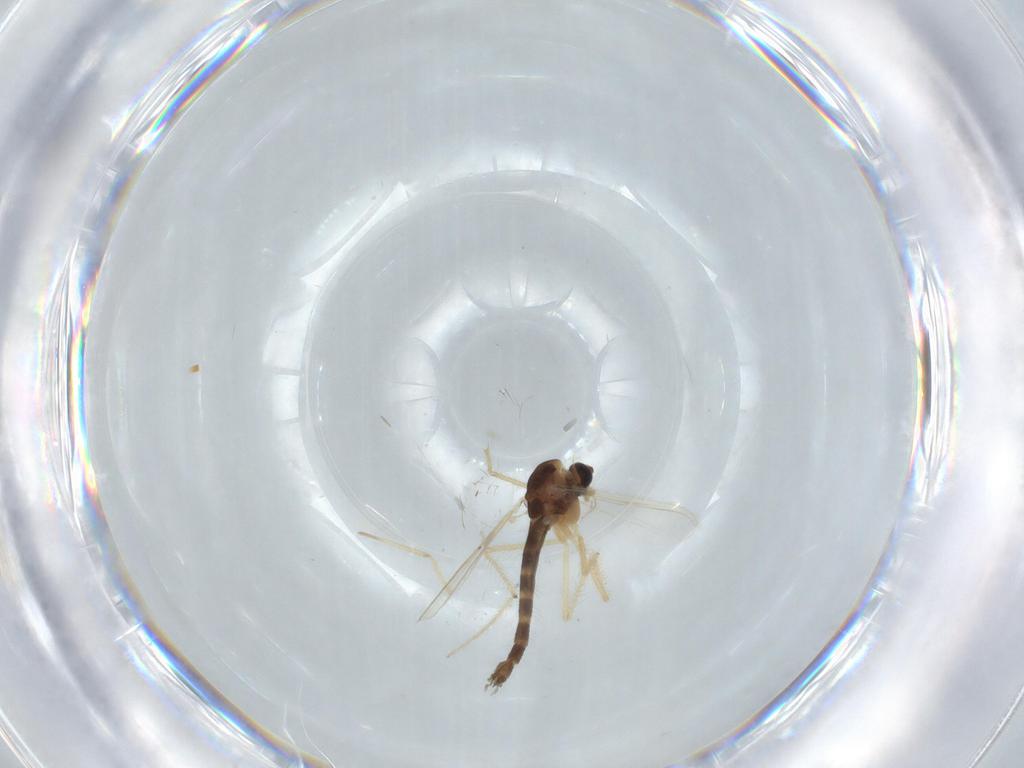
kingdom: Animalia
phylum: Arthropoda
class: Insecta
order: Diptera
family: Chironomidae
